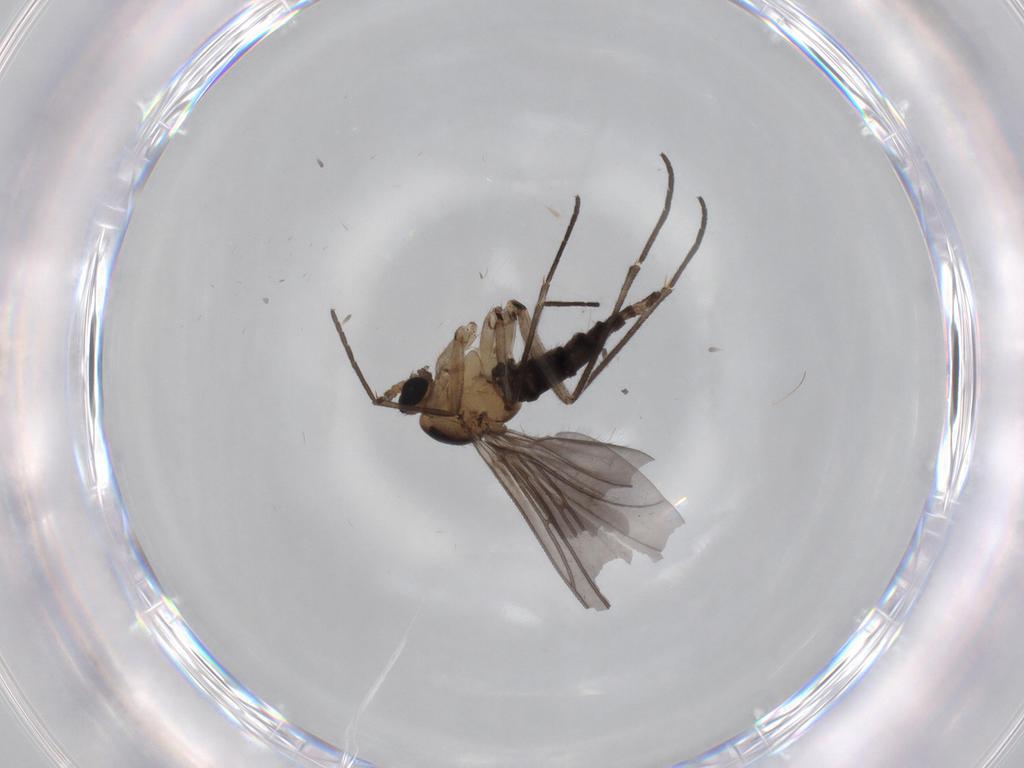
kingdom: Animalia
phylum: Arthropoda
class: Insecta
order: Diptera
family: Sciaridae
